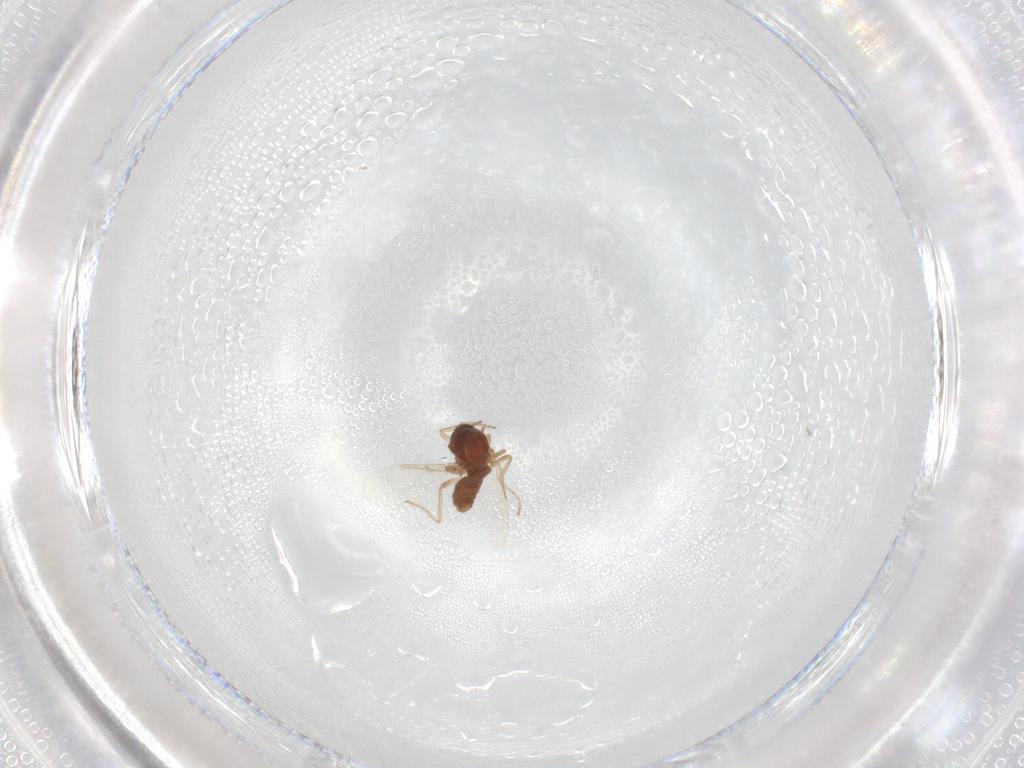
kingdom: Animalia
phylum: Arthropoda
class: Insecta
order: Diptera
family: Ceratopogonidae
